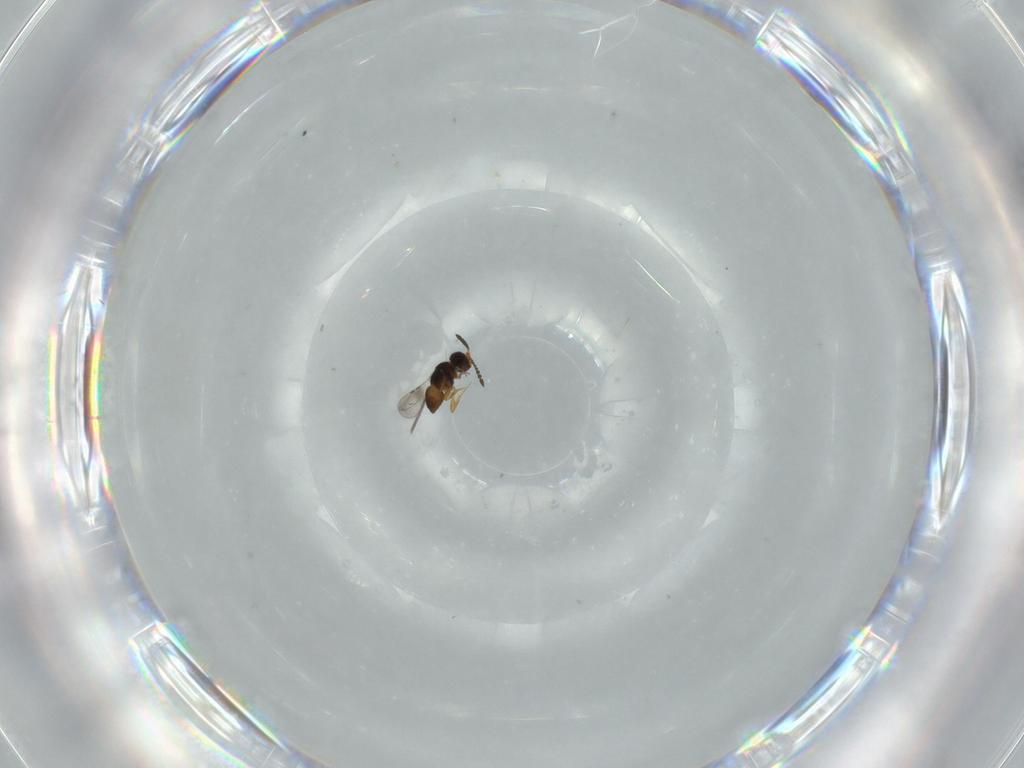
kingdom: Animalia
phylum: Arthropoda
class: Insecta
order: Hymenoptera
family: Ceraphronidae
